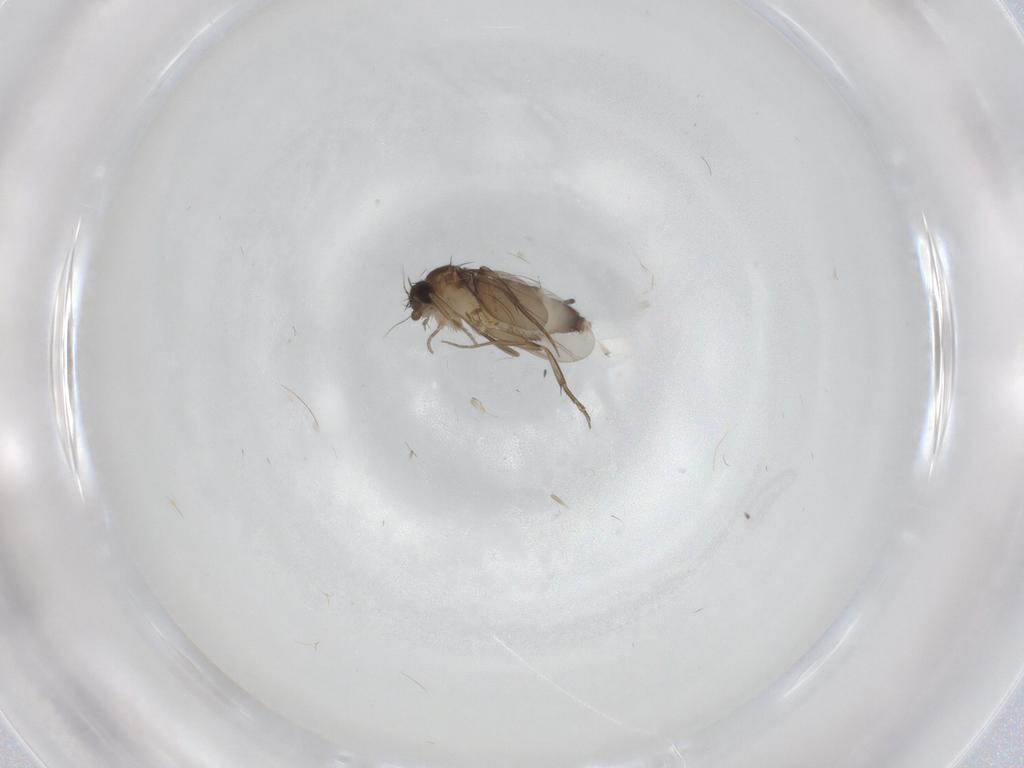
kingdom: Animalia
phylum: Arthropoda
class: Insecta
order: Diptera
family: Phoridae
